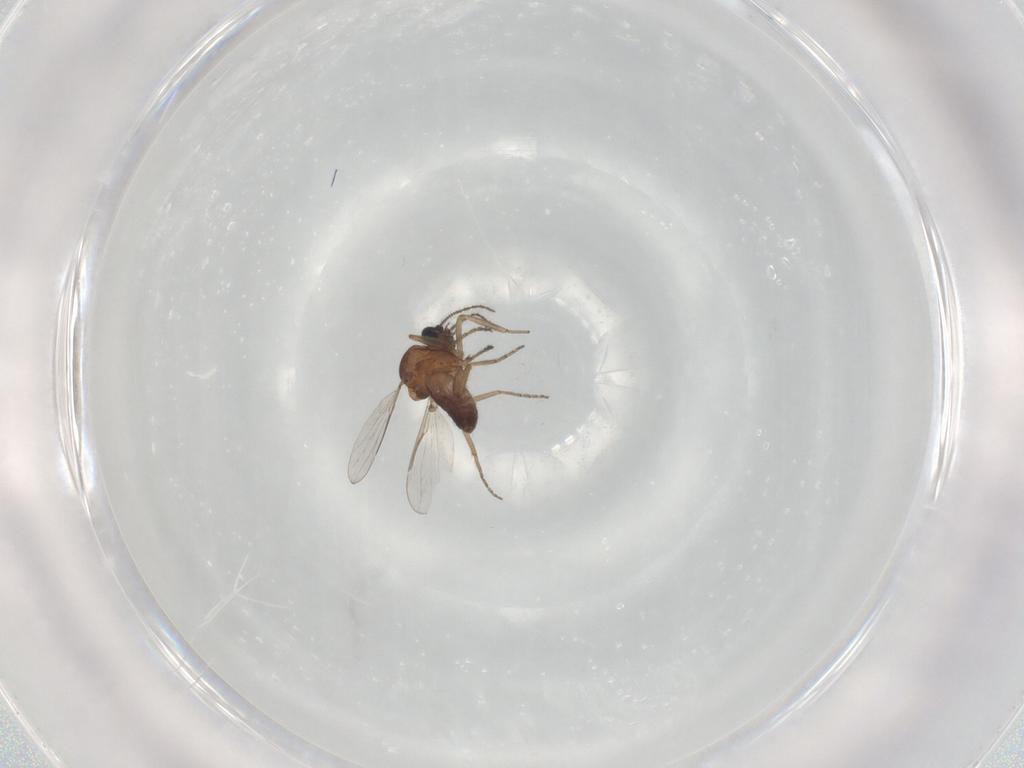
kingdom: Animalia
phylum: Arthropoda
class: Insecta
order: Diptera
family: Ceratopogonidae
